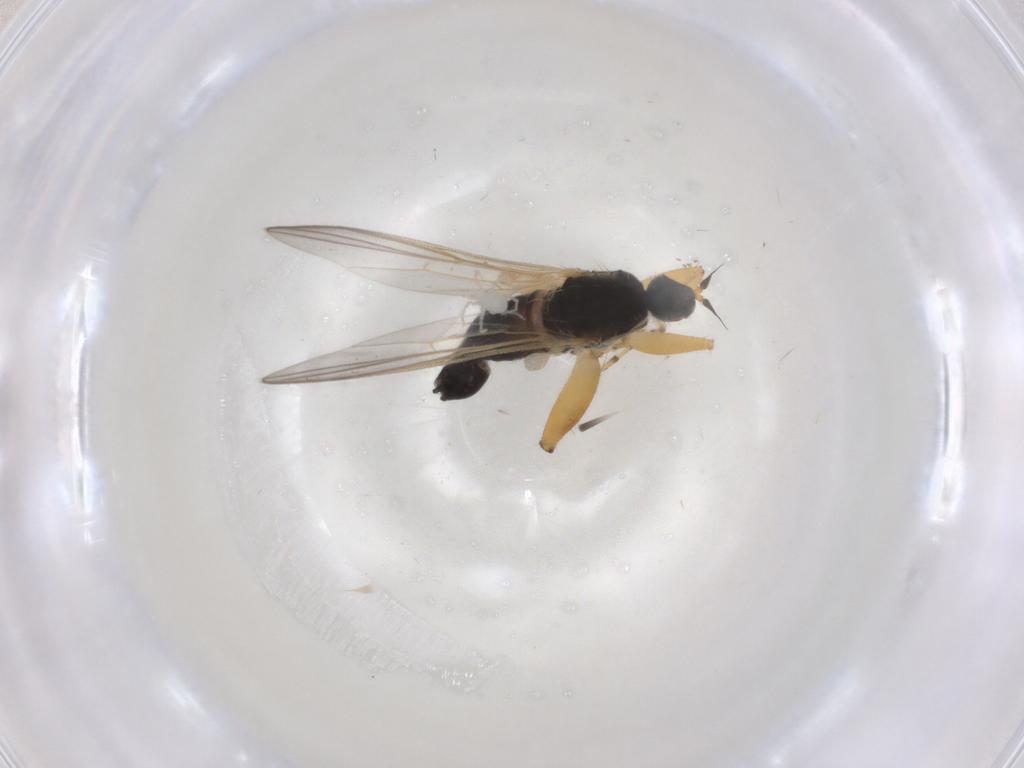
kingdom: Animalia
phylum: Arthropoda
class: Insecta
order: Diptera
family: Hybotidae
